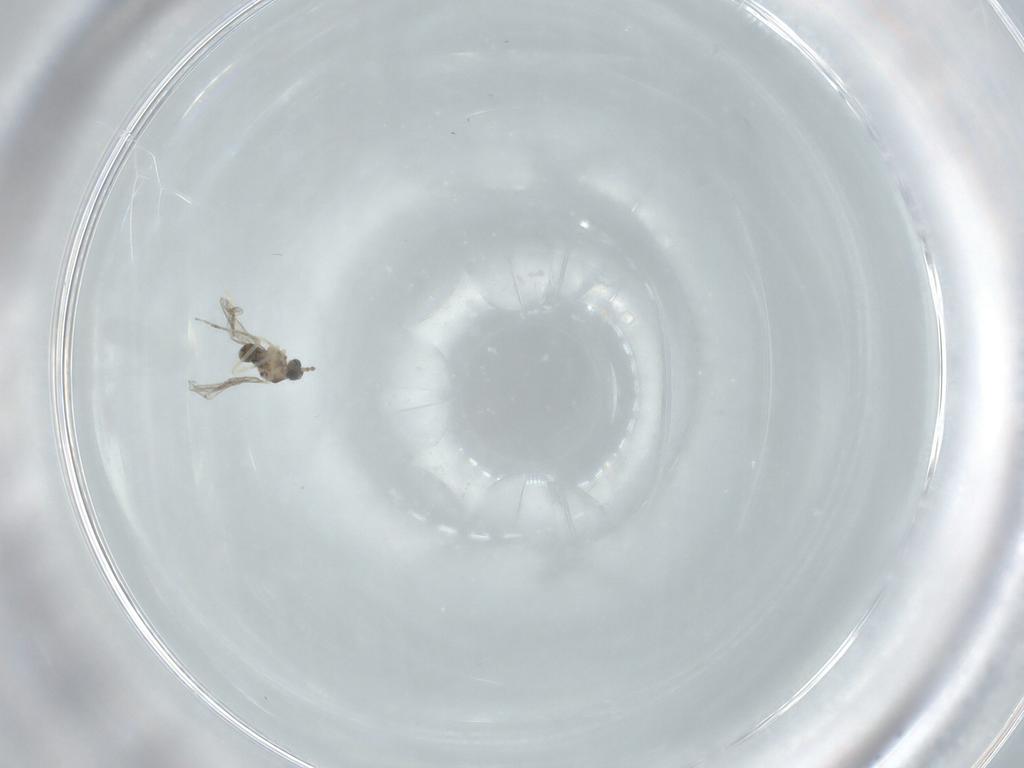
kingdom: Animalia
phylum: Arthropoda
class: Insecta
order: Diptera
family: Cecidomyiidae
